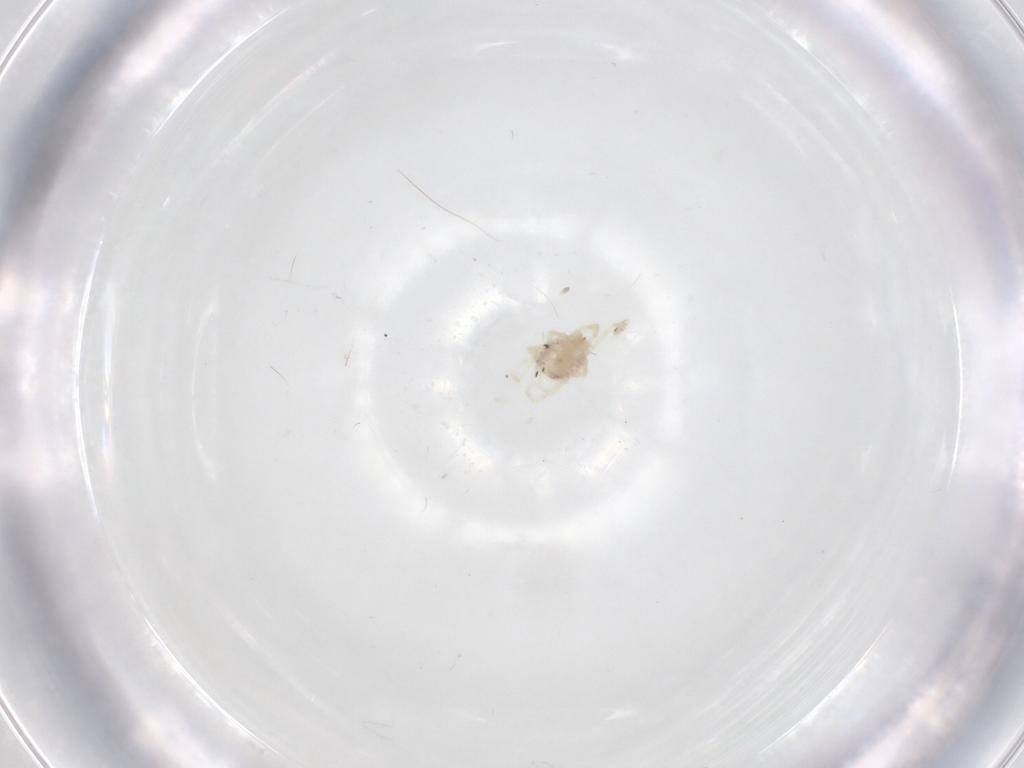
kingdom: Animalia
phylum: Arthropoda
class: Arachnida
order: Trombidiformes
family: Erythraeidae
